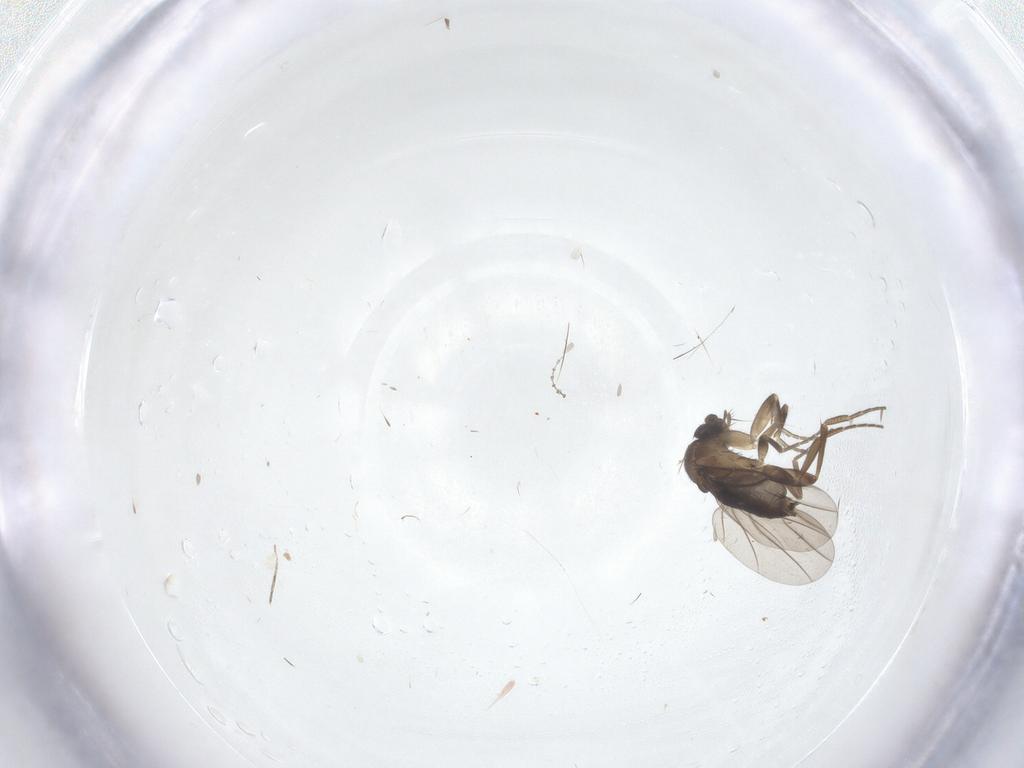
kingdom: Animalia
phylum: Arthropoda
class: Insecta
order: Diptera
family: Phoridae
